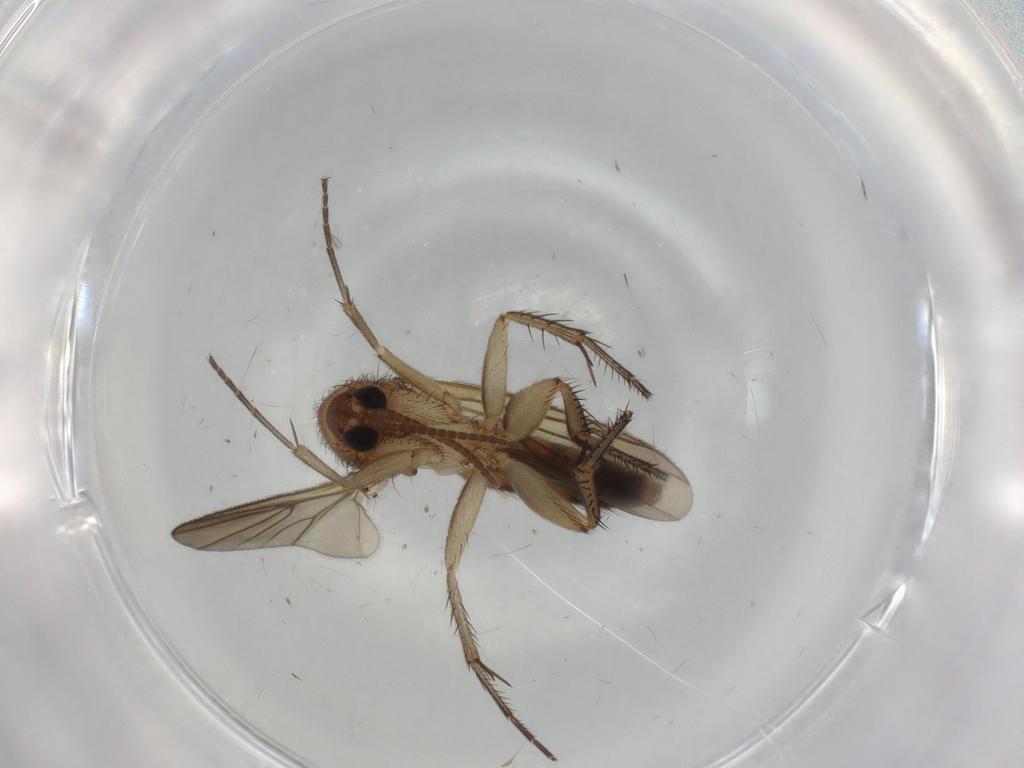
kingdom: Animalia
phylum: Arthropoda
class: Insecta
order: Diptera
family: Mycetophilidae
